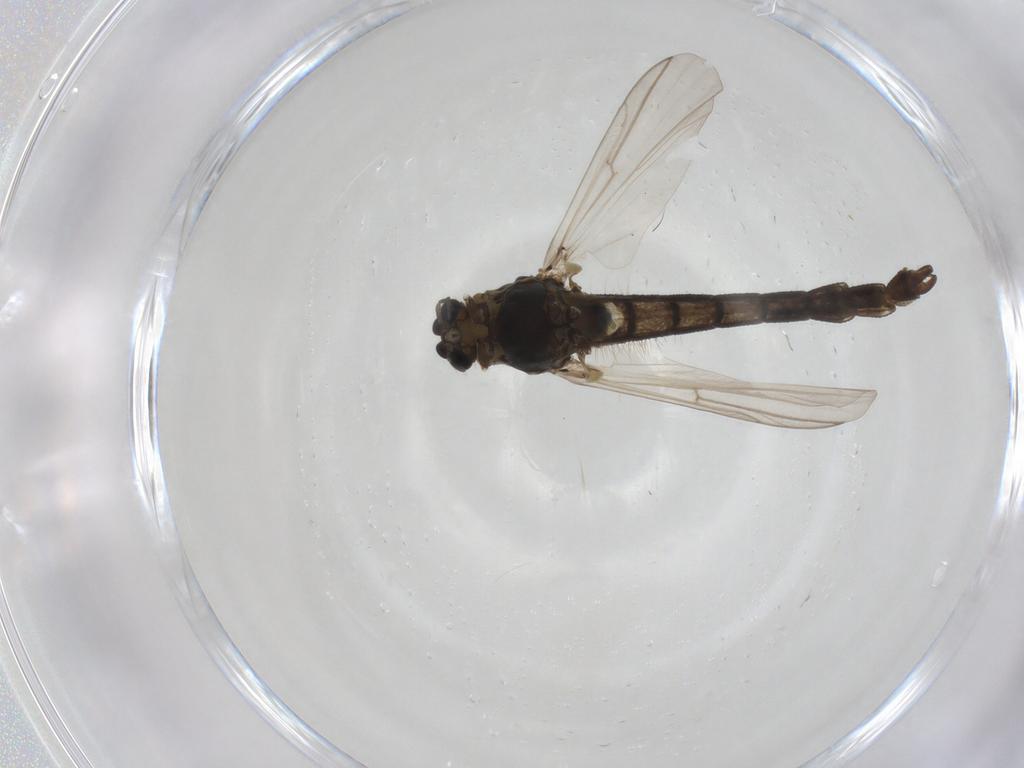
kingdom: Animalia
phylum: Arthropoda
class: Insecta
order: Diptera
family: Chironomidae
